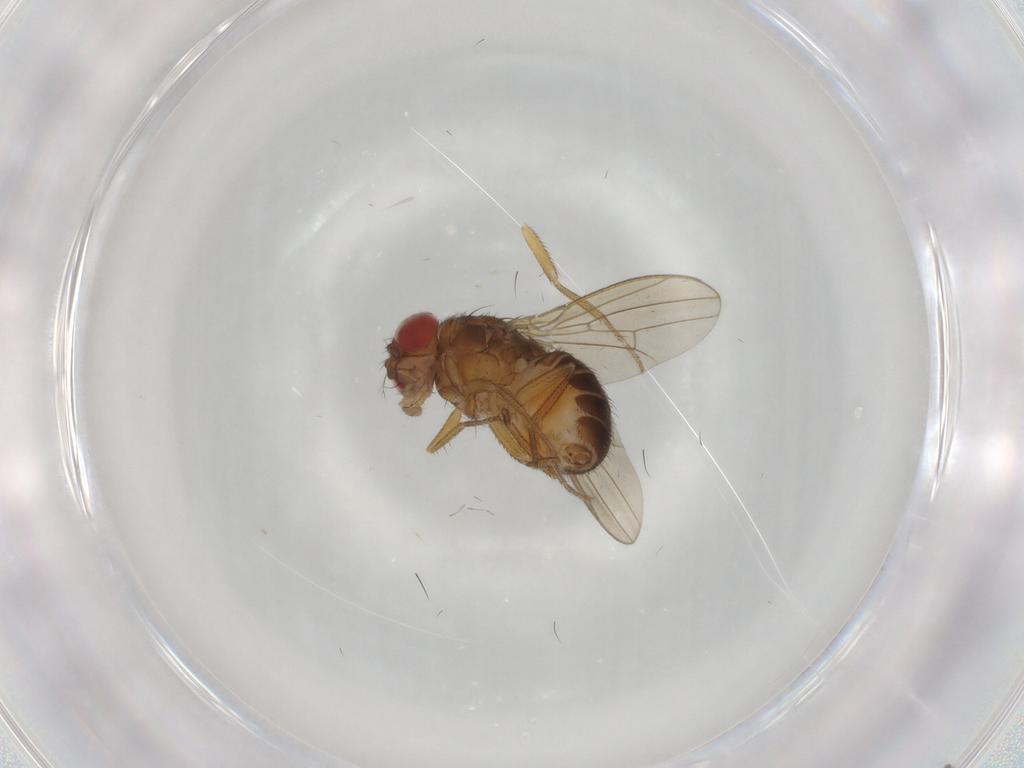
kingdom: Animalia
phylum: Arthropoda
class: Insecta
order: Diptera
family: Drosophilidae
